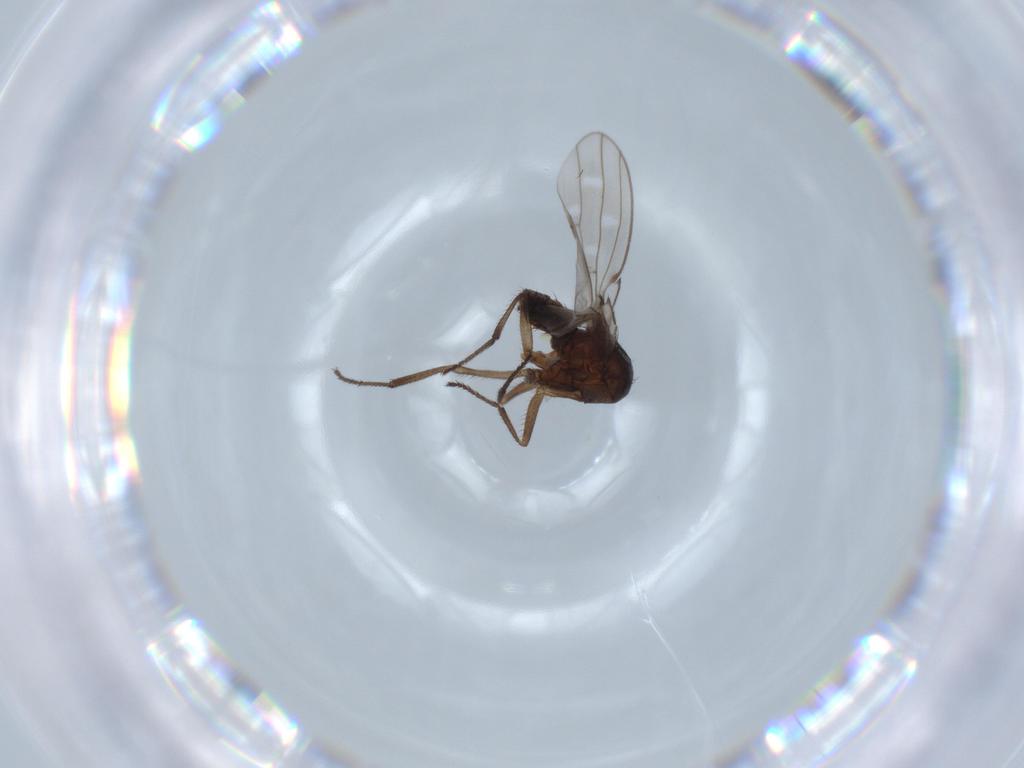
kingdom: Animalia
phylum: Arthropoda
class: Insecta
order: Diptera
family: Ephydridae
